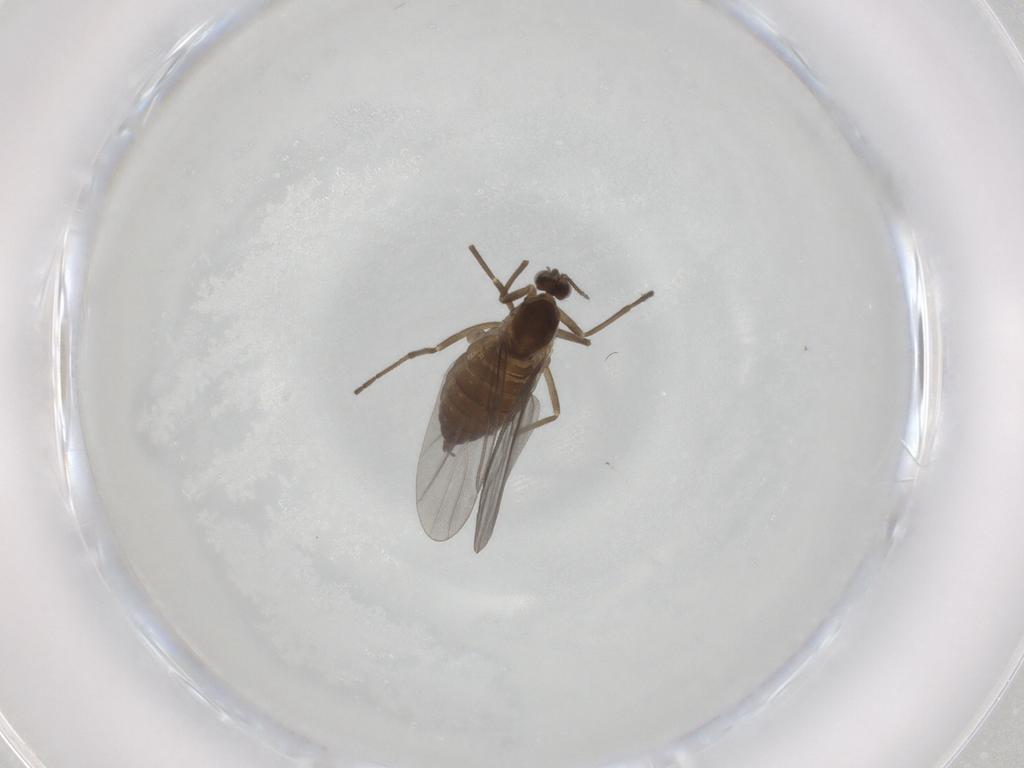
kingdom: Animalia
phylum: Arthropoda
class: Insecta
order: Diptera
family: Cecidomyiidae
